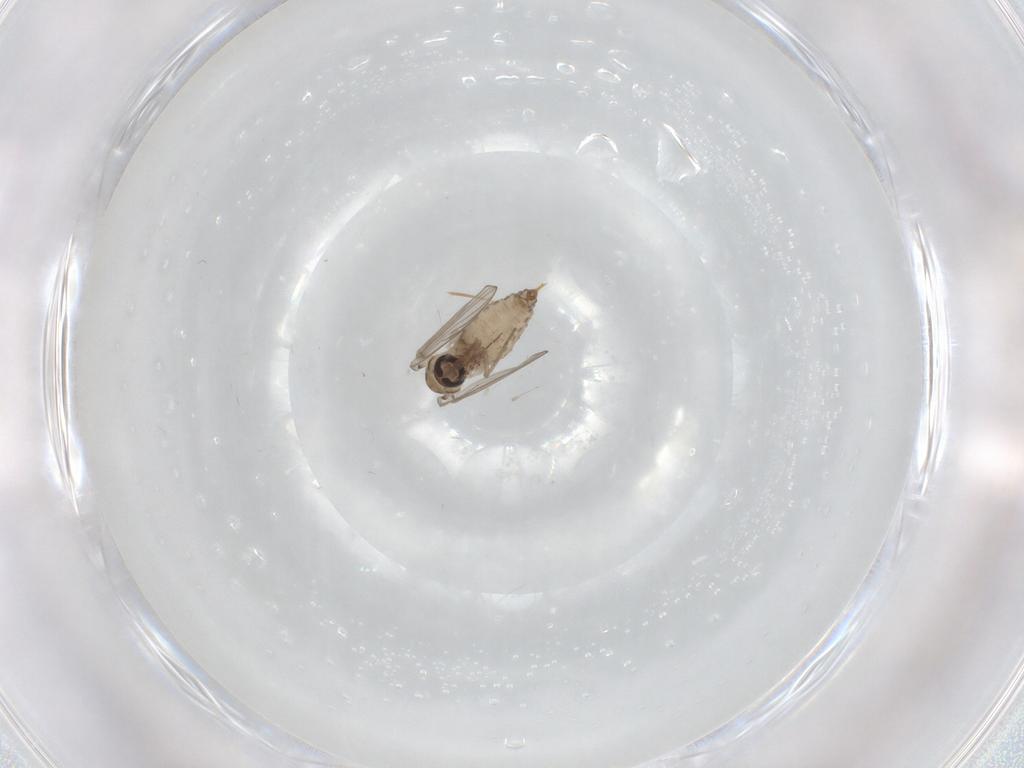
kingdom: Animalia
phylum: Arthropoda
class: Insecta
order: Diptera
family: Psychodidae
